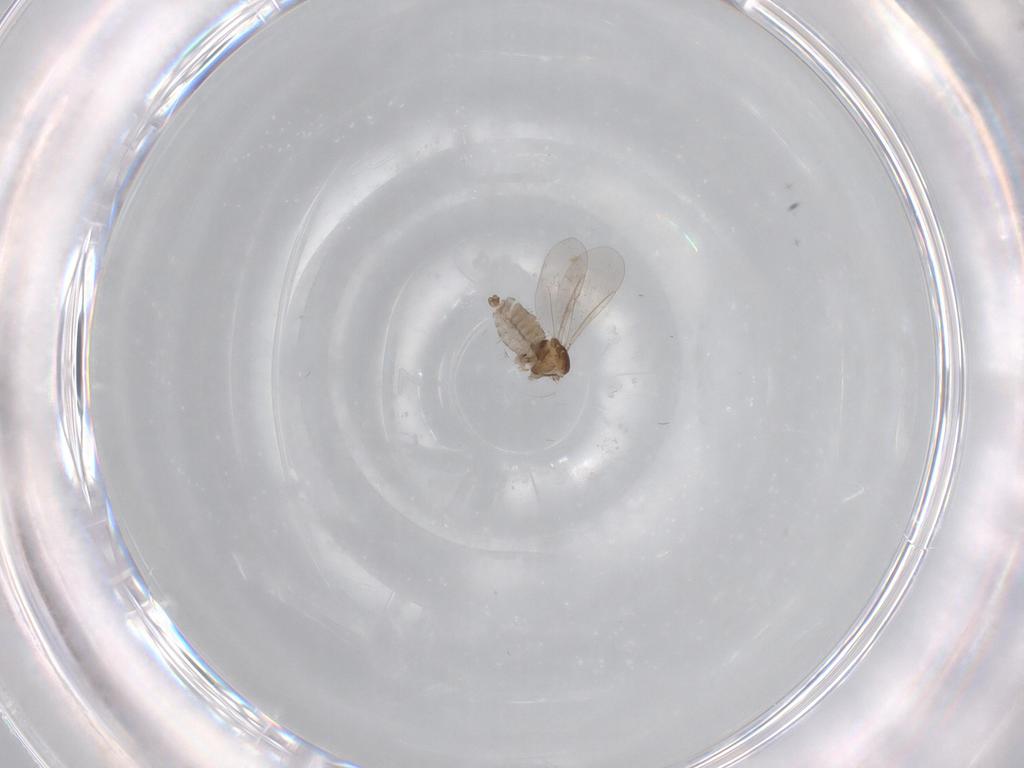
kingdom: Animalia
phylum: Arthropoda
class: Insecta
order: Diptera
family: Cecidomyiidae
